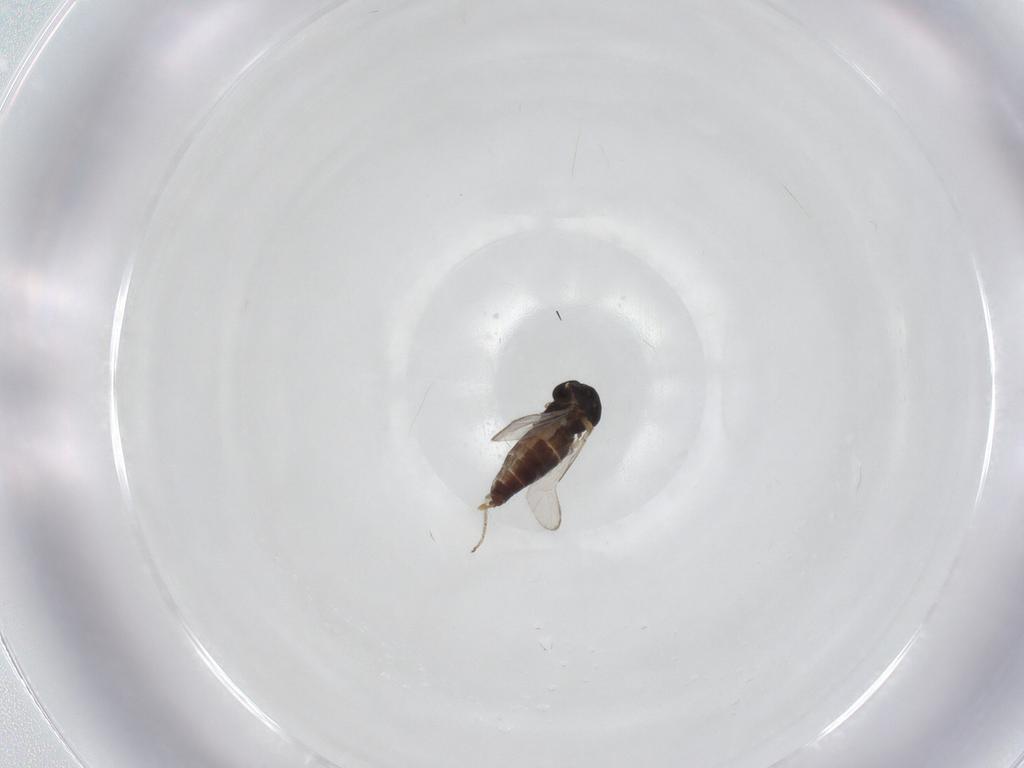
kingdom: Animalia
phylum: Arthropoda
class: Insecta
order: Diptera
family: Ceratopogonidae
